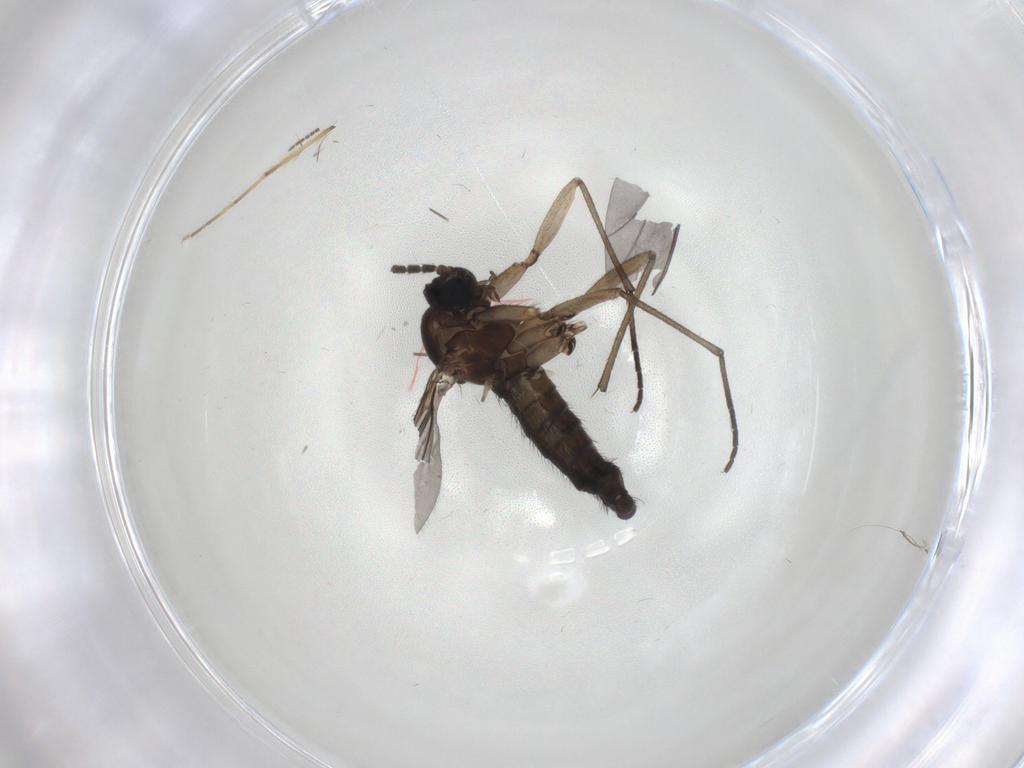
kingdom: Animalia
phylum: Arthropoda
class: Insecta
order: Diptera
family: Sciaridae
